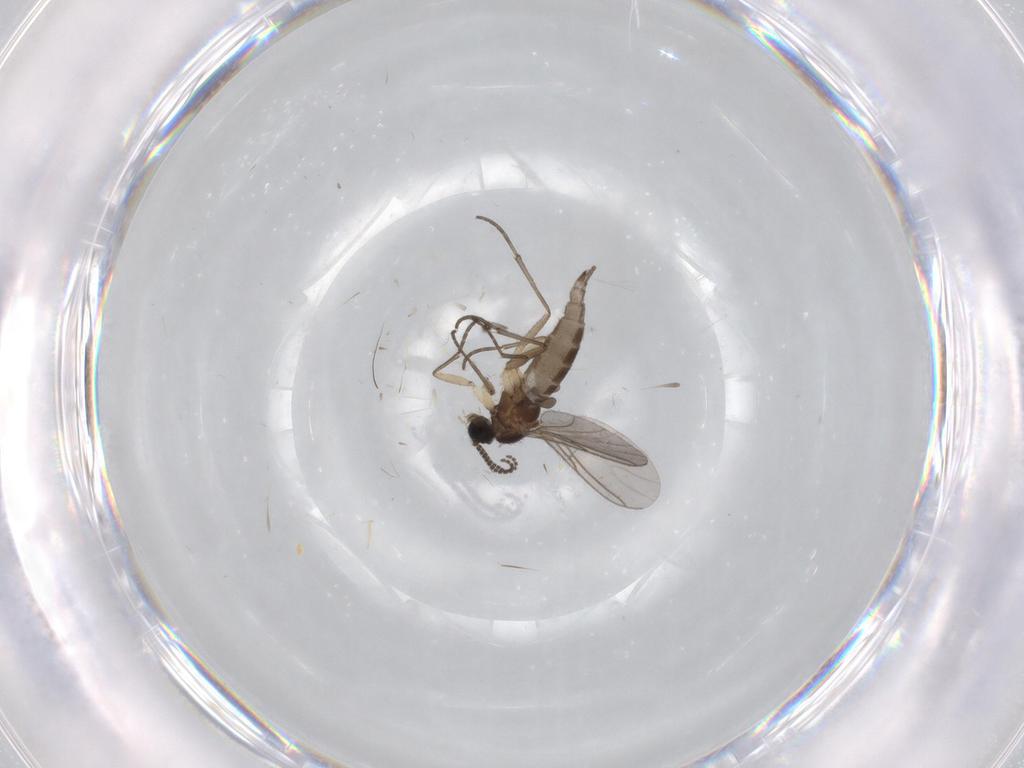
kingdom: Animalia
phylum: Arthropoda
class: Insecta
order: Diptera
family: Sciaridae
